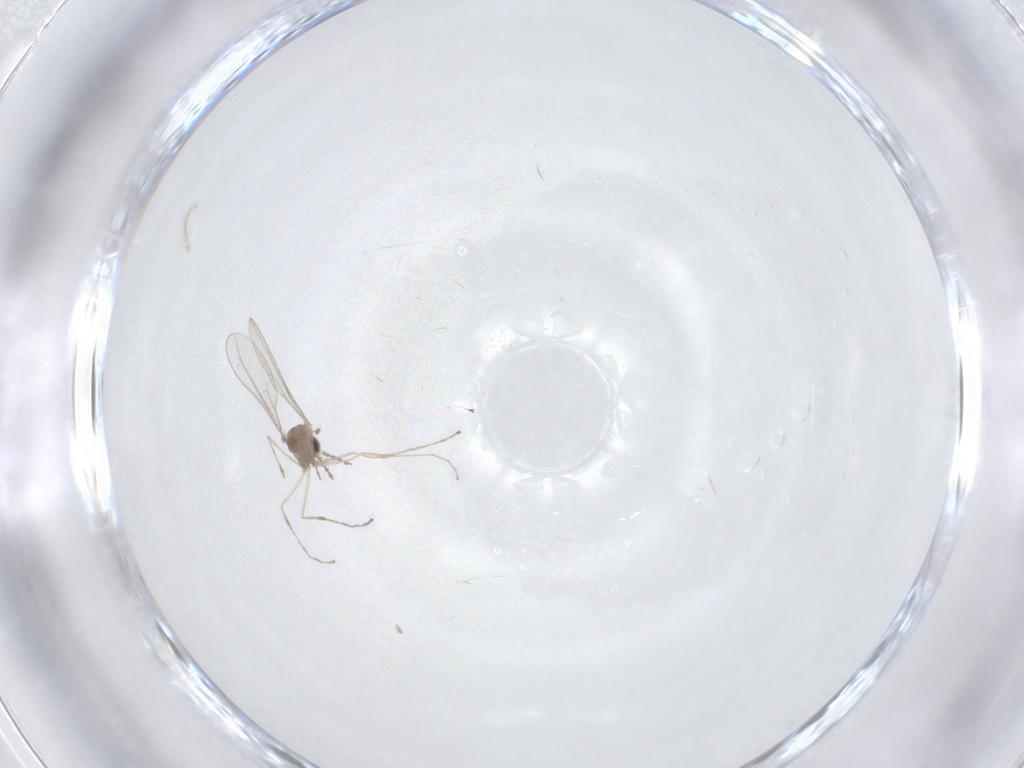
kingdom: Animalia
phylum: Arthropoda
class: Insecta
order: Diptera
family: Cecidomyiidae
